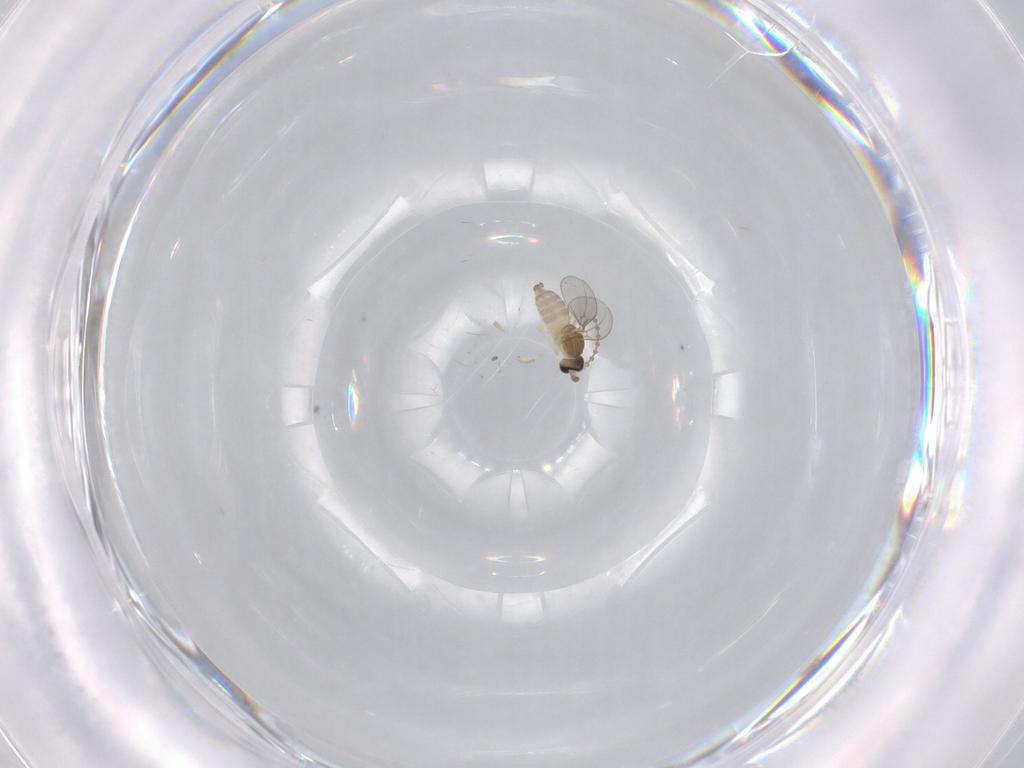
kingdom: Animalia
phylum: Arthropoda
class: Insecta
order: Diptera
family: Cecidomyiidae
